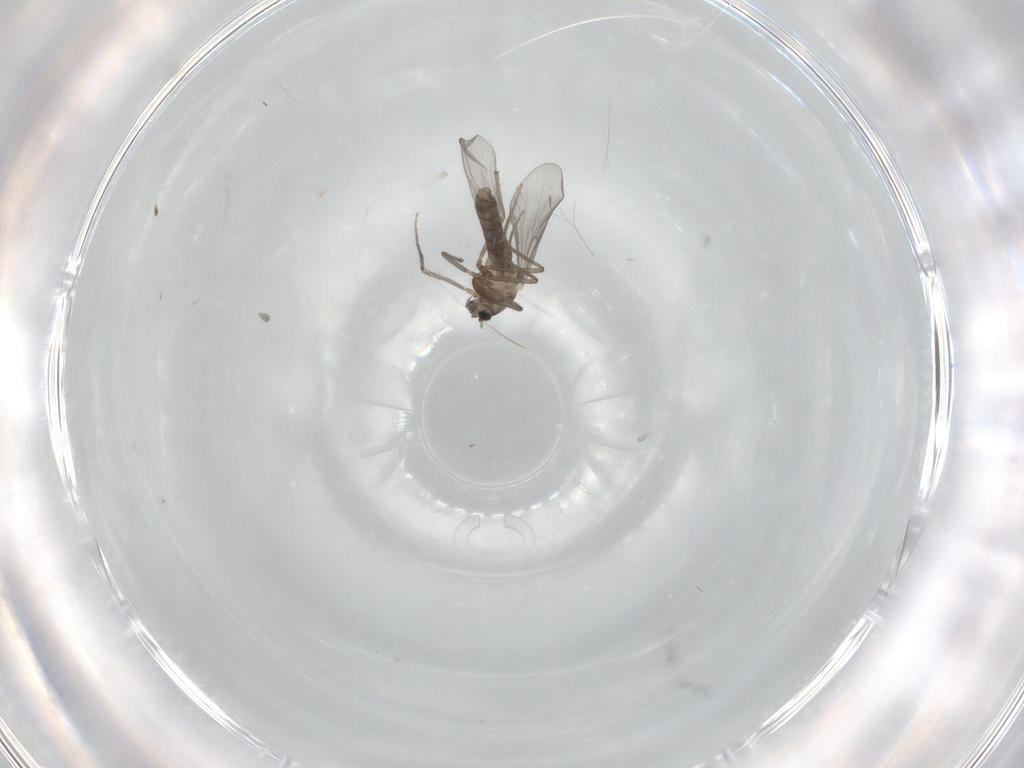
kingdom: Animalia
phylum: Arthropoda
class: Insecta
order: Diptera
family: Mycetophilidae
